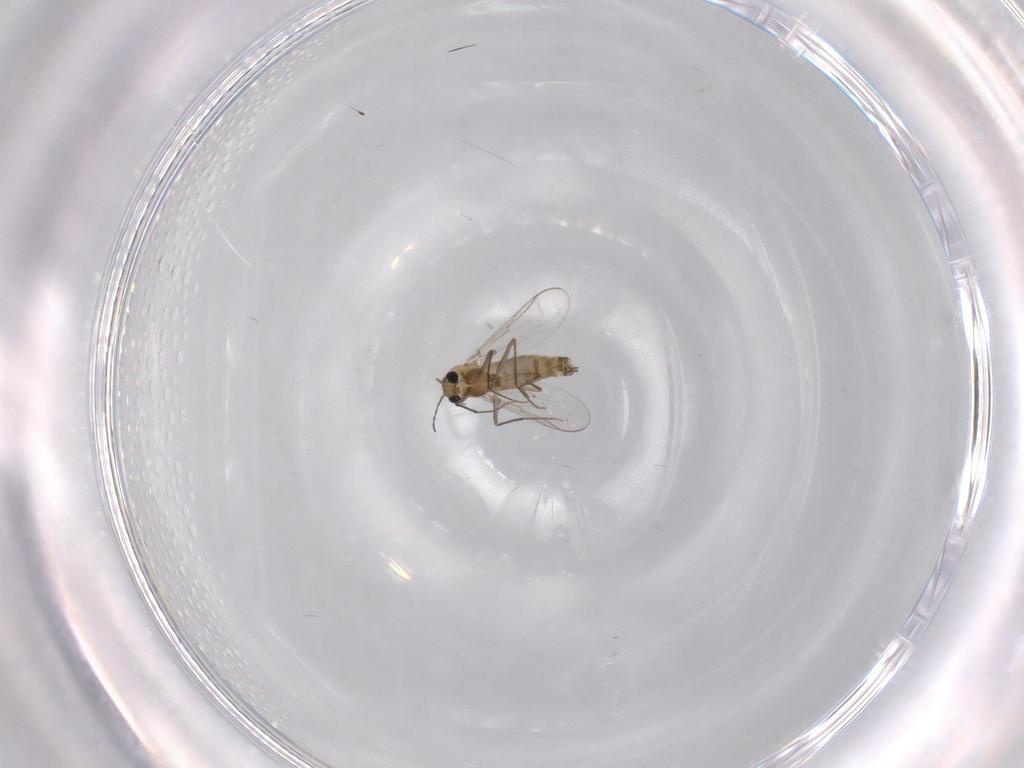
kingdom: Animalia
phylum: Arthropoda
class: Insecta
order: Diptera
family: Chironomidae
